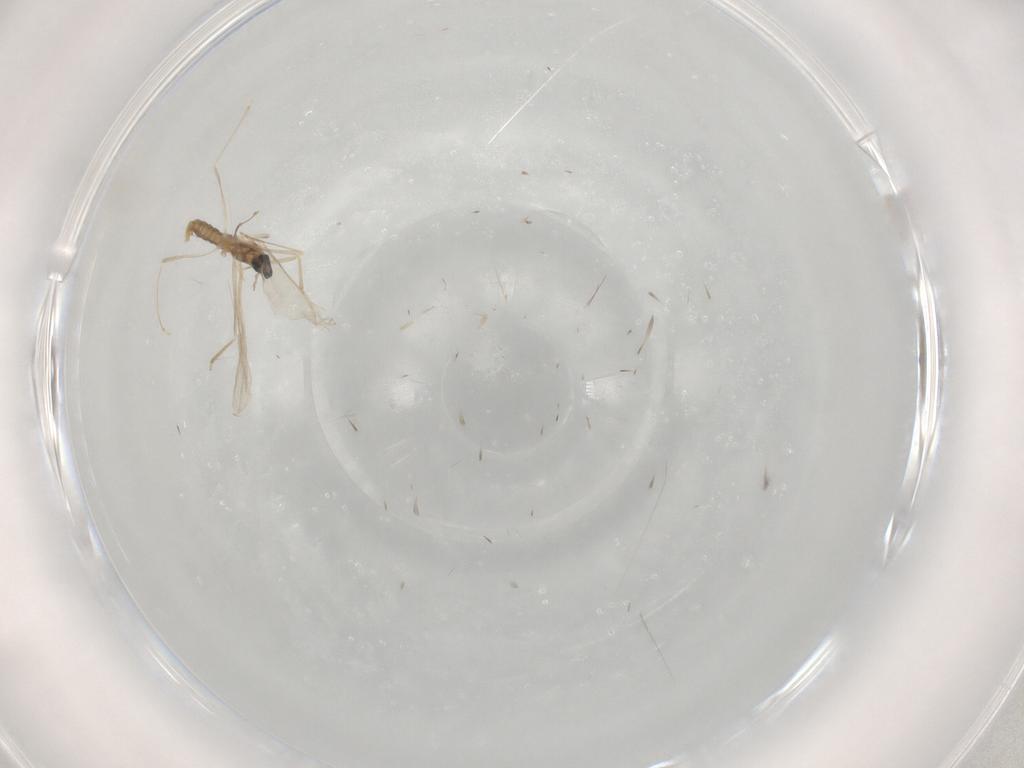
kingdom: Animalia
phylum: Arthropoda
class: Insecta
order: Diptera
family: Cecidomyiidae
